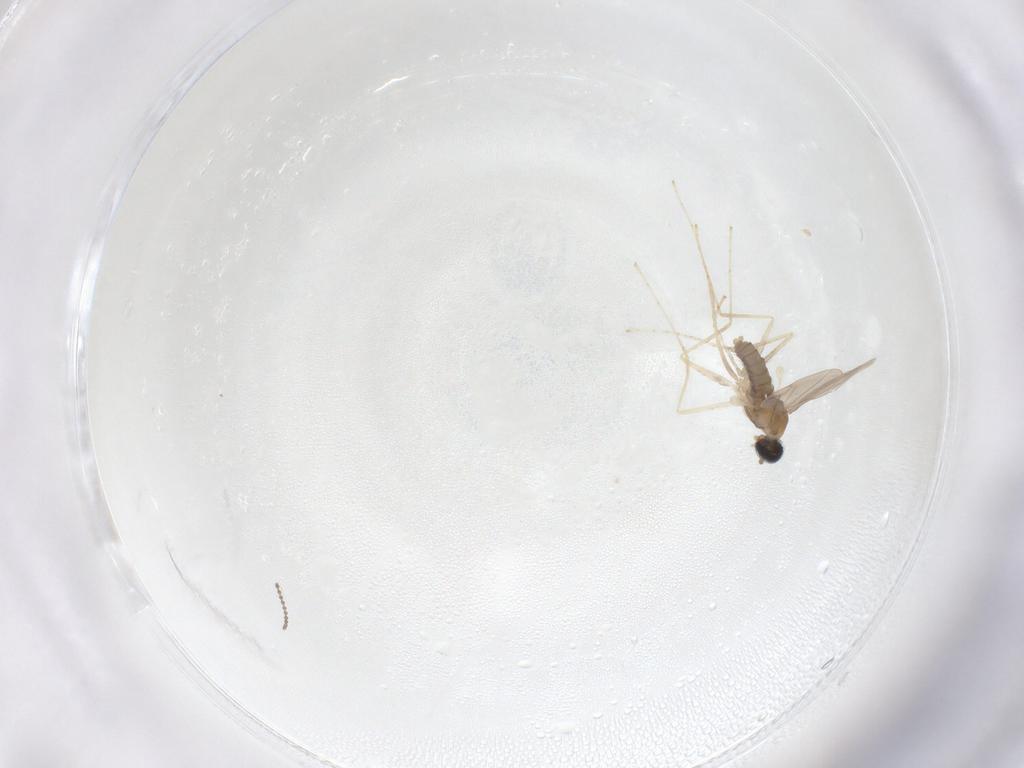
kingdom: Animalia
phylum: Arthropoda
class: Insecta
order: Diptera
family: Cecidomyiidae
